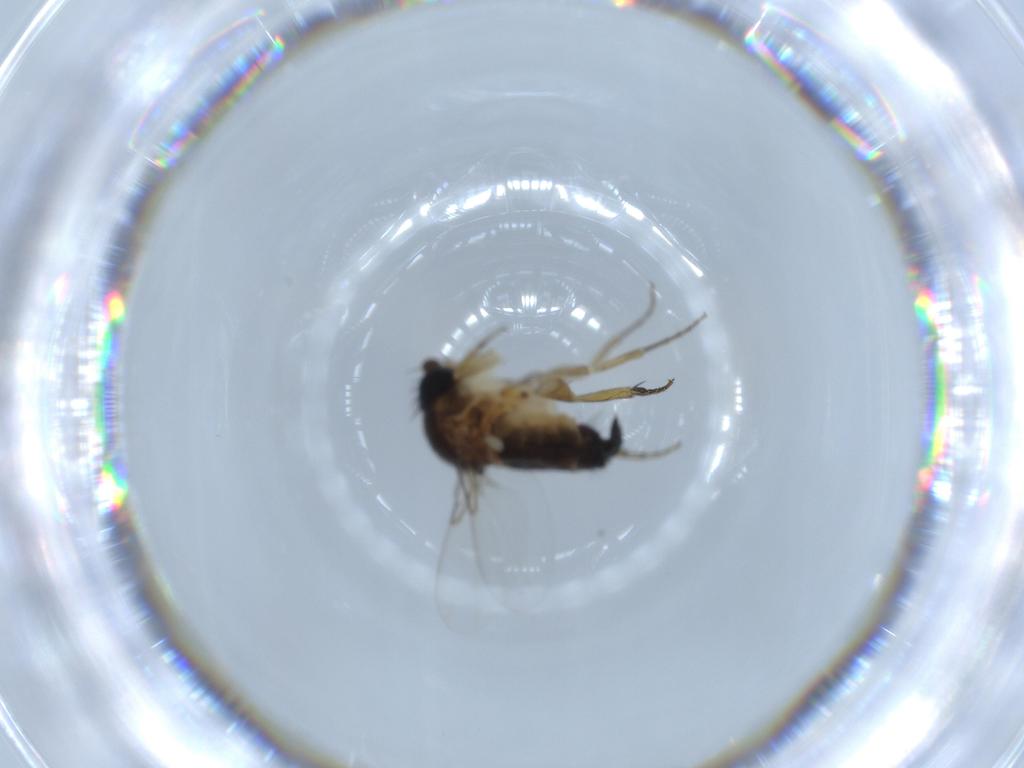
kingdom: Animalia
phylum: Arthropoda
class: Insecta
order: Diptera
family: Phoridae
